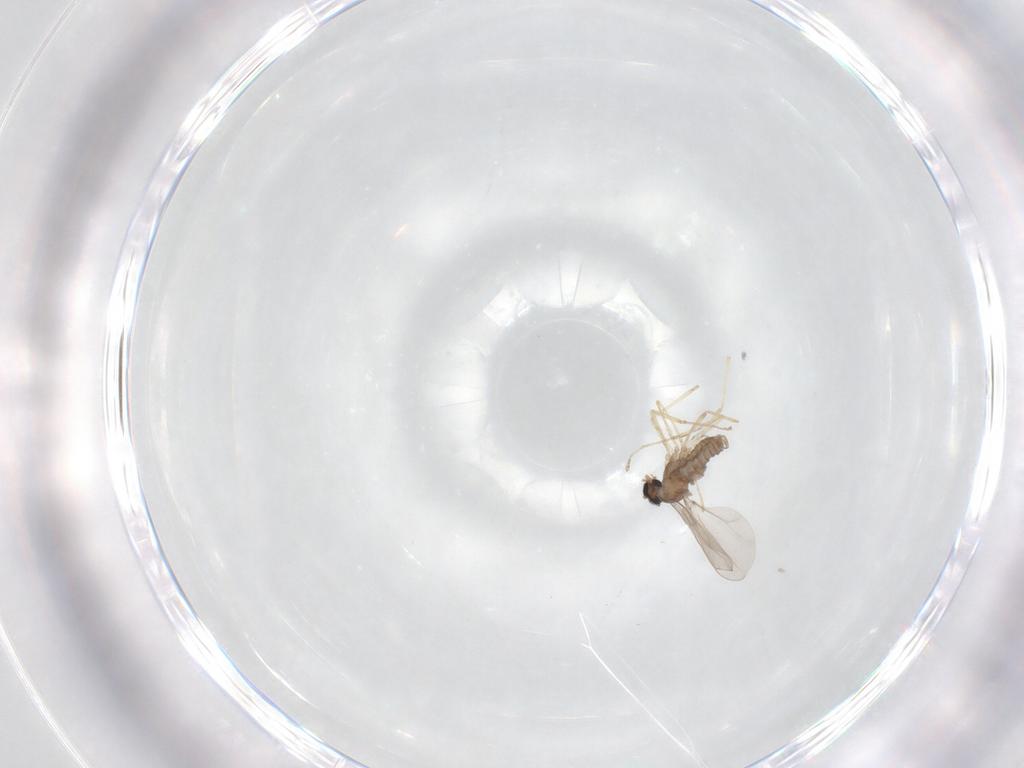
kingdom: Animalia
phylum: Arthropoda
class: Insecta
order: Diptera
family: Cecidomyiidae
